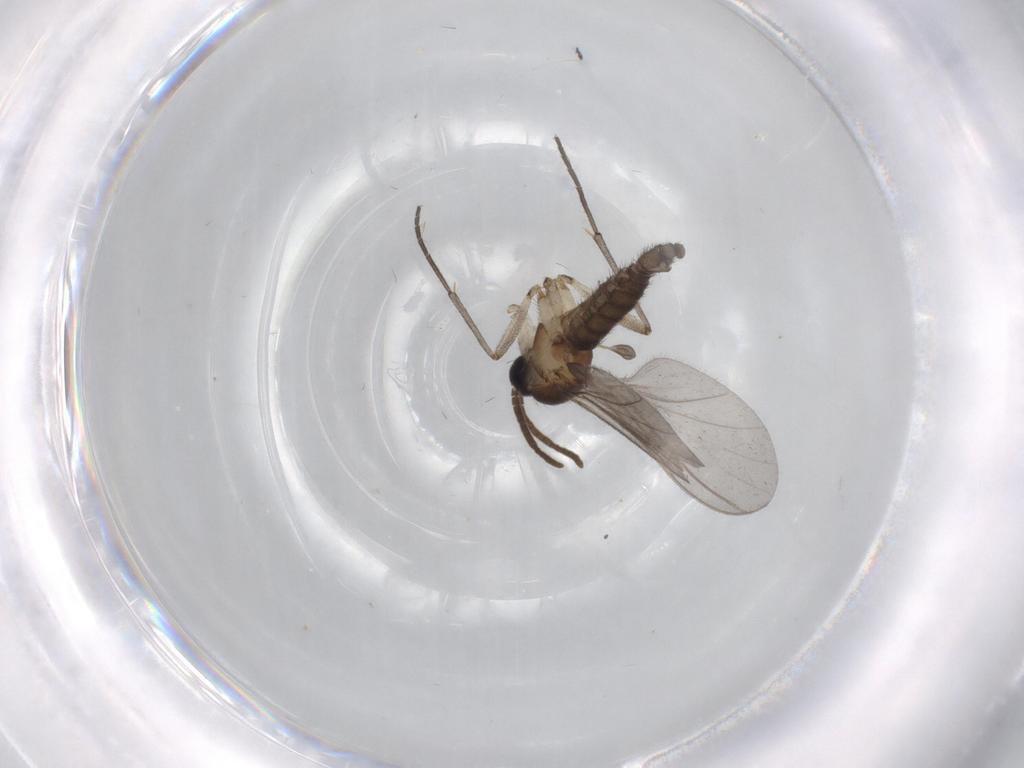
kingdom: Animalia
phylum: Arthropoda
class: Insecta
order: Diptera
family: Cecidomyiidae
